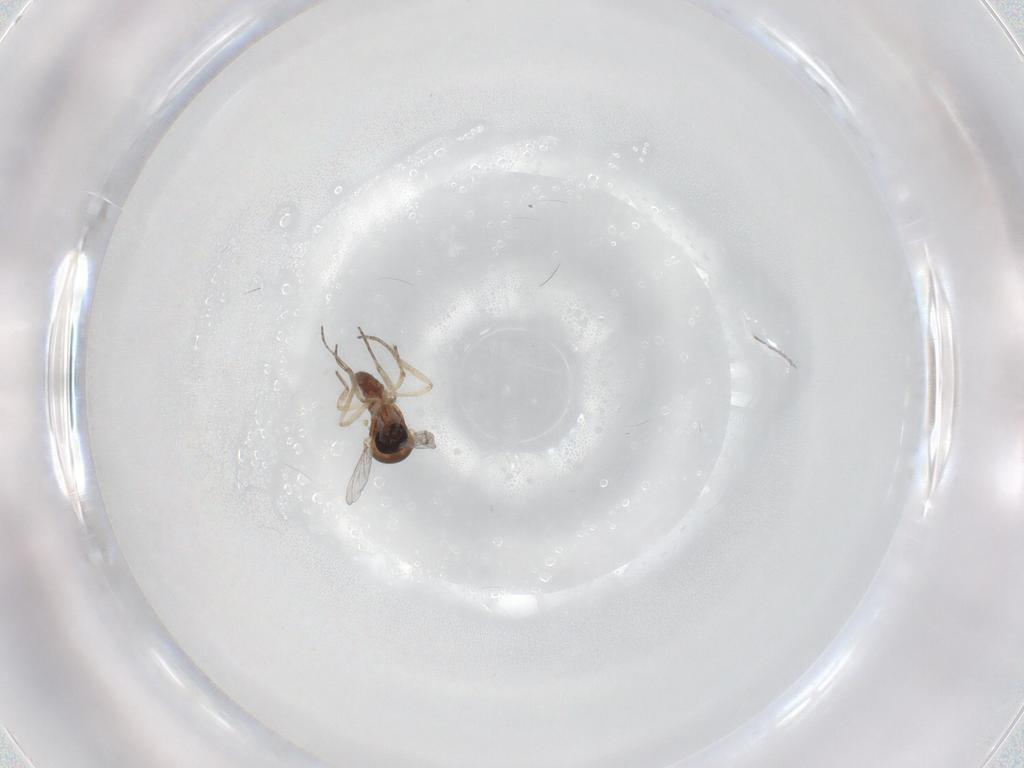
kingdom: Animalia
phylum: Arthropoda
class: Insecta
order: Diptera
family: Ceratopogonidae
